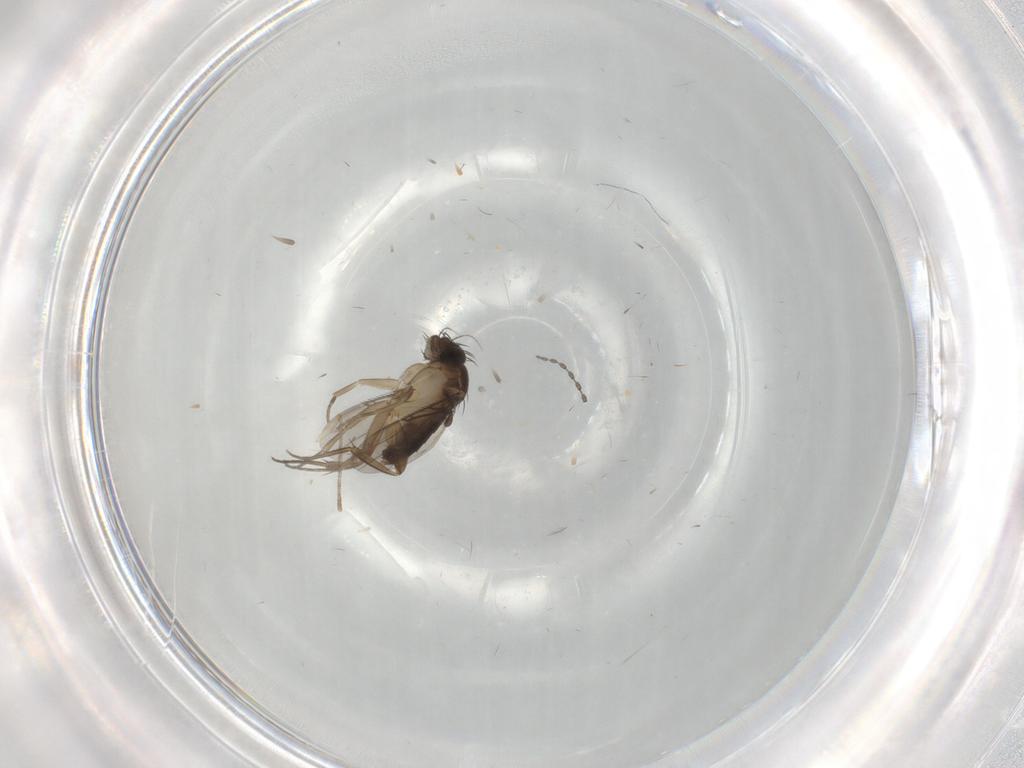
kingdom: Animalia
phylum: Arthropoda
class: Insecta
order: Diptera
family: Phoridae
